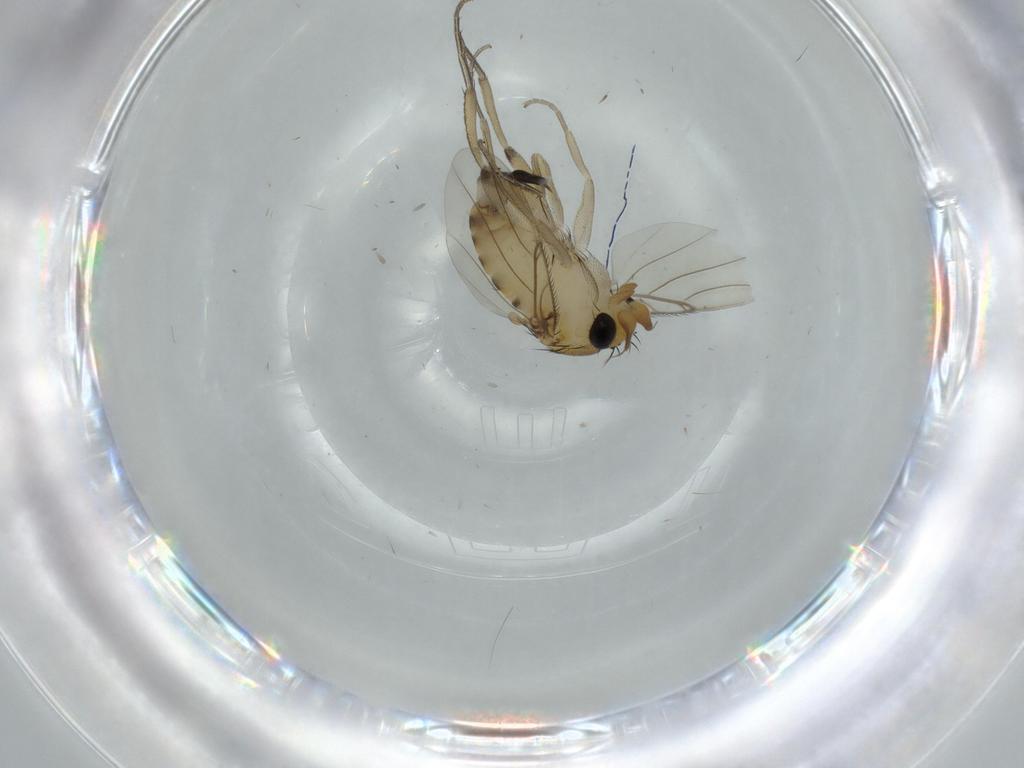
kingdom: Animalia
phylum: Arthropoda
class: Insecta
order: Diptera
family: Phoridae
